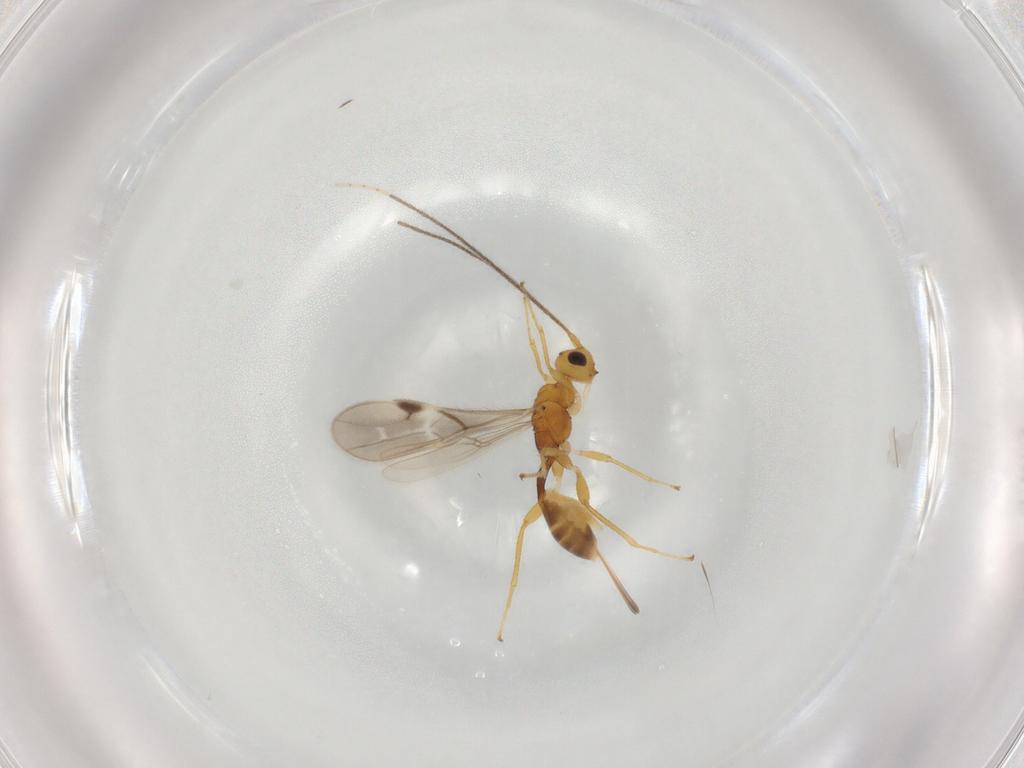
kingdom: Animalia
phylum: Arthropoda
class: Insecta
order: Hymenoptera
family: Braconidae
